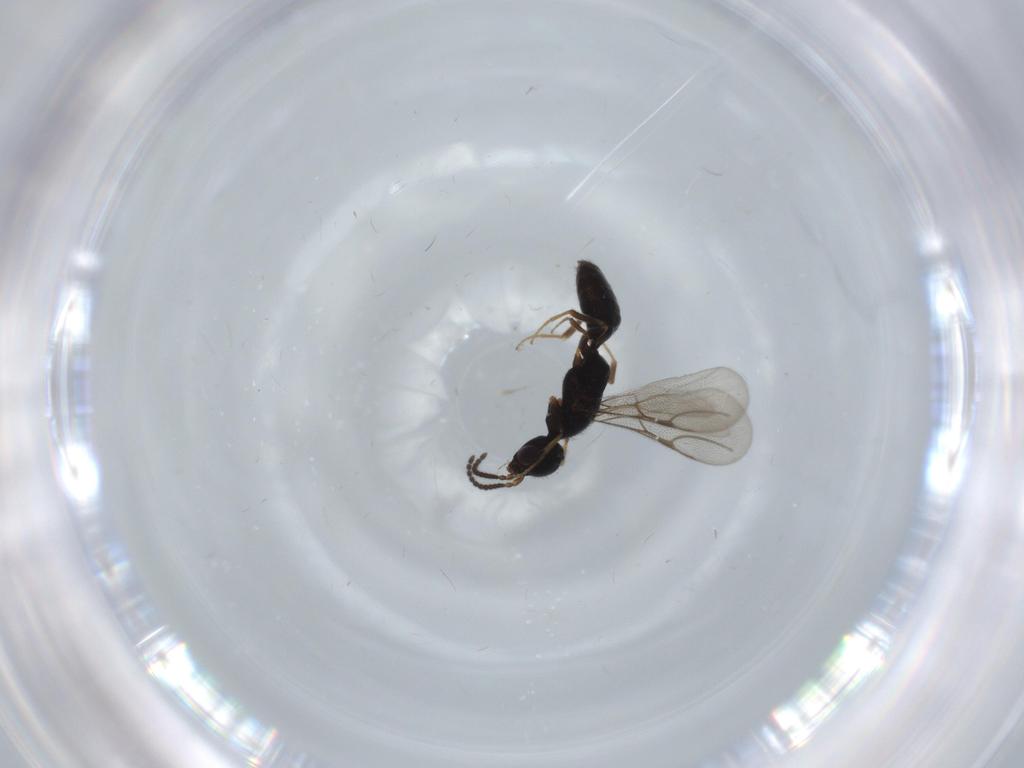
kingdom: Animalia
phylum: Arthropoda
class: Insecta
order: Hymenoptera
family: Bethylidae
